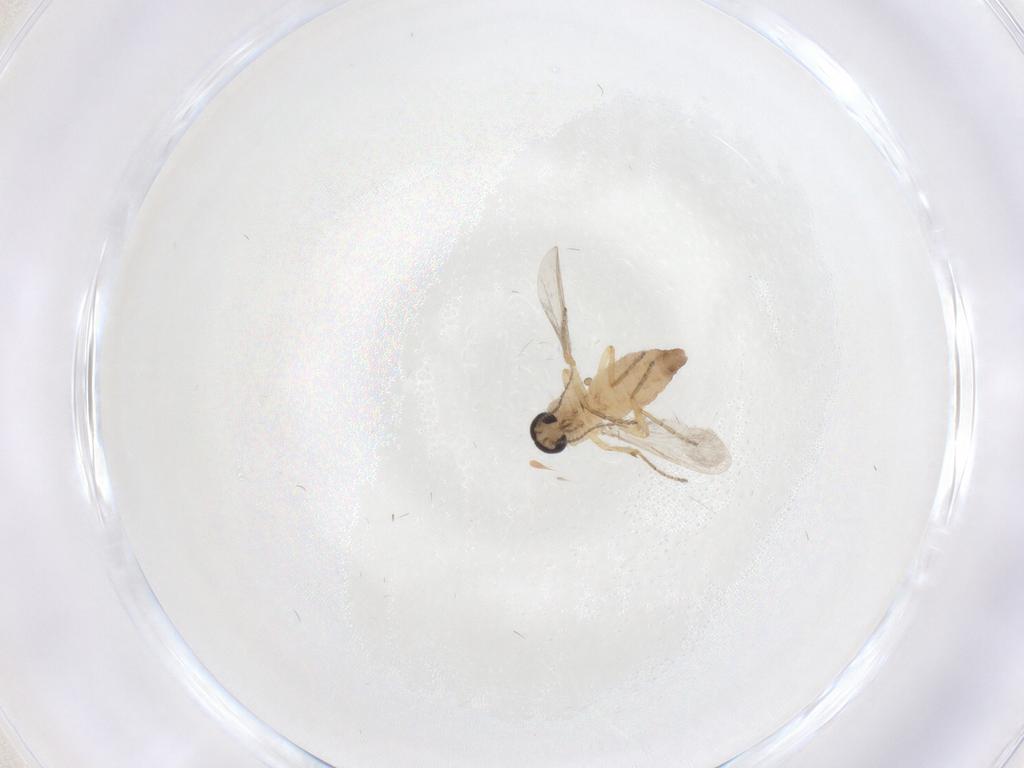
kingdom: Animalia
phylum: Arthropoda
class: Insecta
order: Diptera
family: Ceratopogonidae
